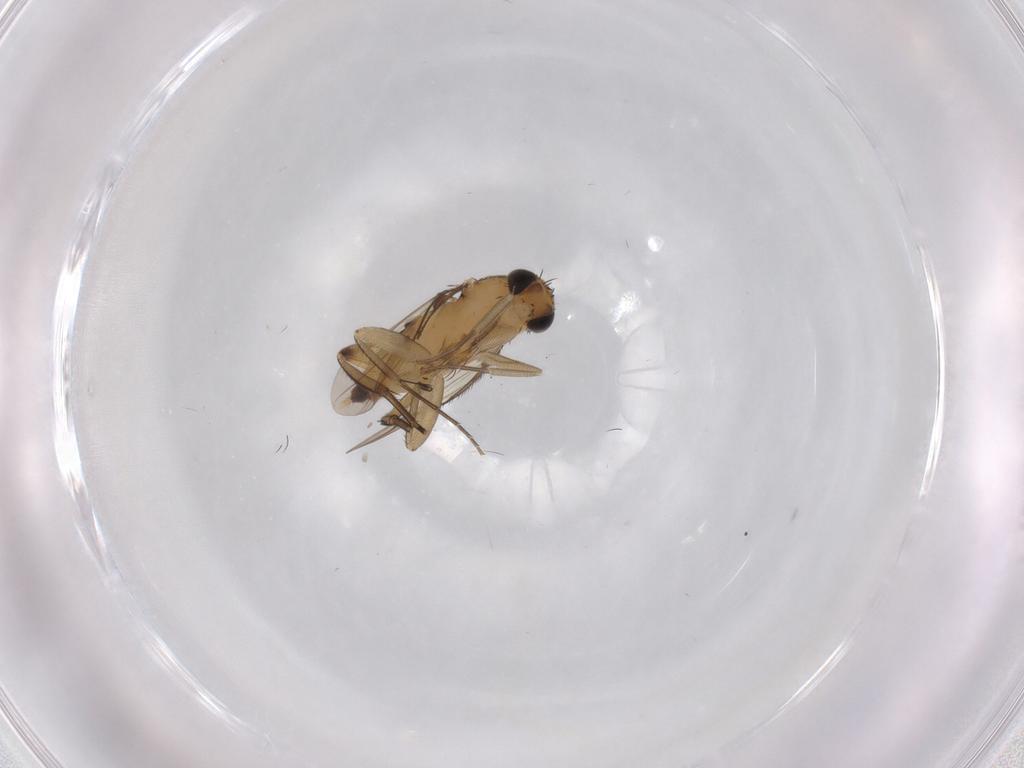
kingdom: Animalia
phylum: Arthropoda
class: Insecta
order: Diptera
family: Phoridae
